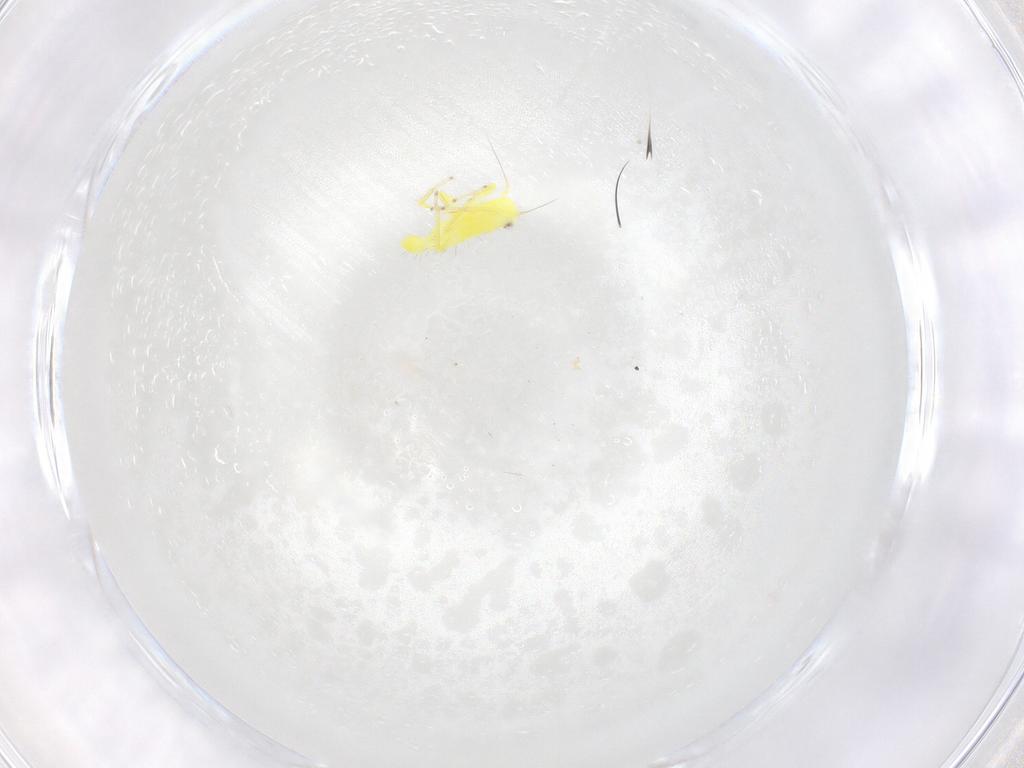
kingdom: Animalia
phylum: Arthropoda
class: Insecta
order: Hemiptera
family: Cicadellidae
